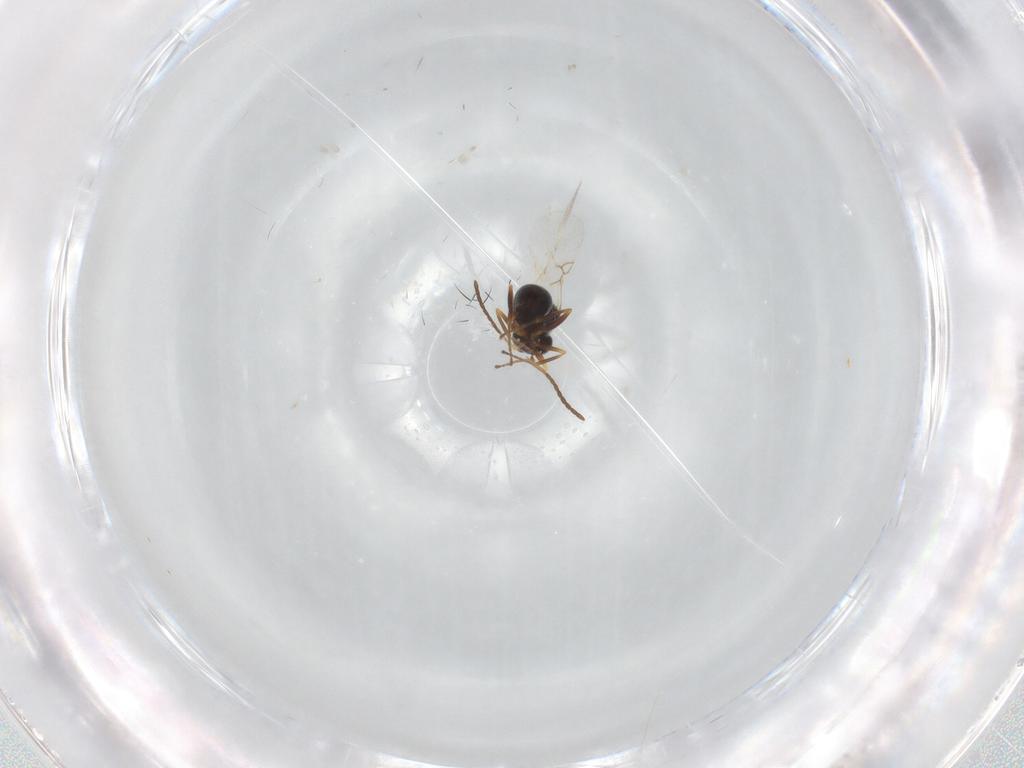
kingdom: Animalia
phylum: Arthropoda
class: Insecta
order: Hymenoptera
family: Figitidae
